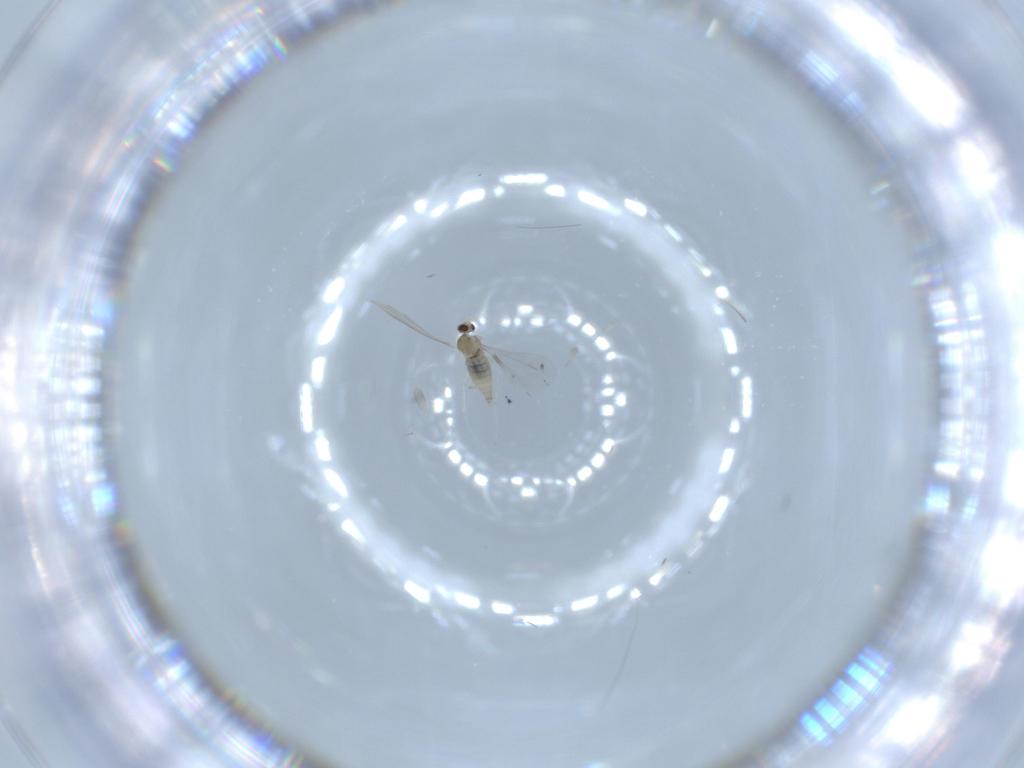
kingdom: Animalia
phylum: Arthropoda
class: Insecta
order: Diptera
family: Cecidomyiidae
